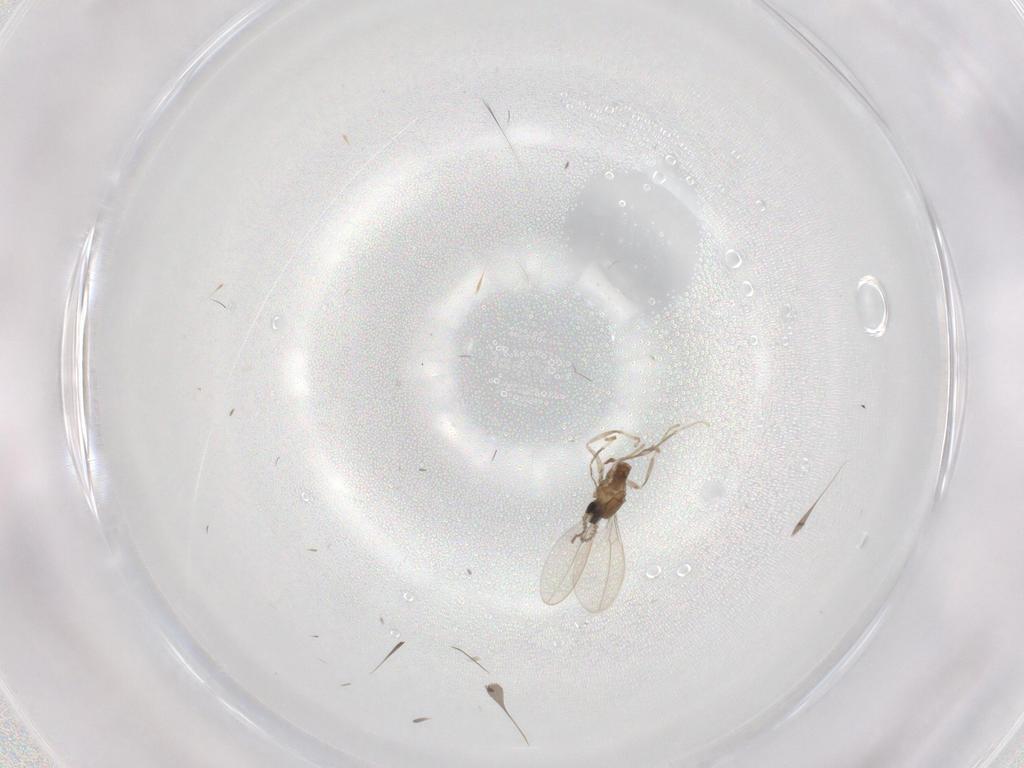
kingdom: Animalia
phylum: Arthropoda
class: Insecta
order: Diptera
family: Cecidomyiidae
